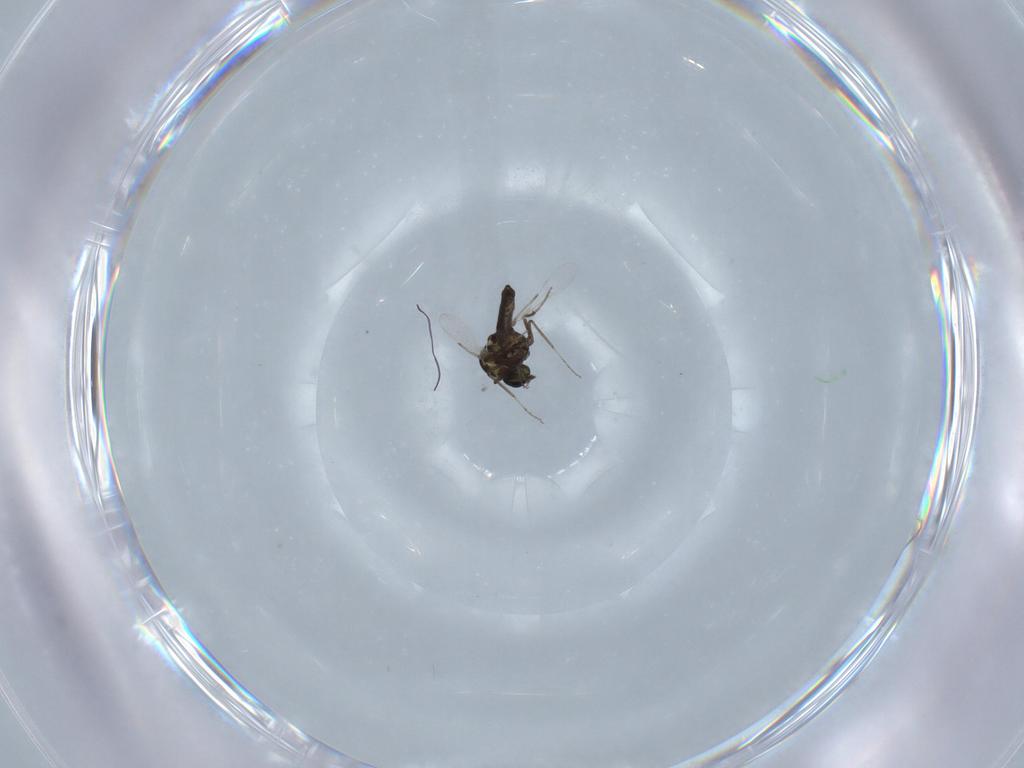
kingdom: Animalia
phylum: Arthropoda
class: Insecta
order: Diptera
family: Ceratopogonidae
